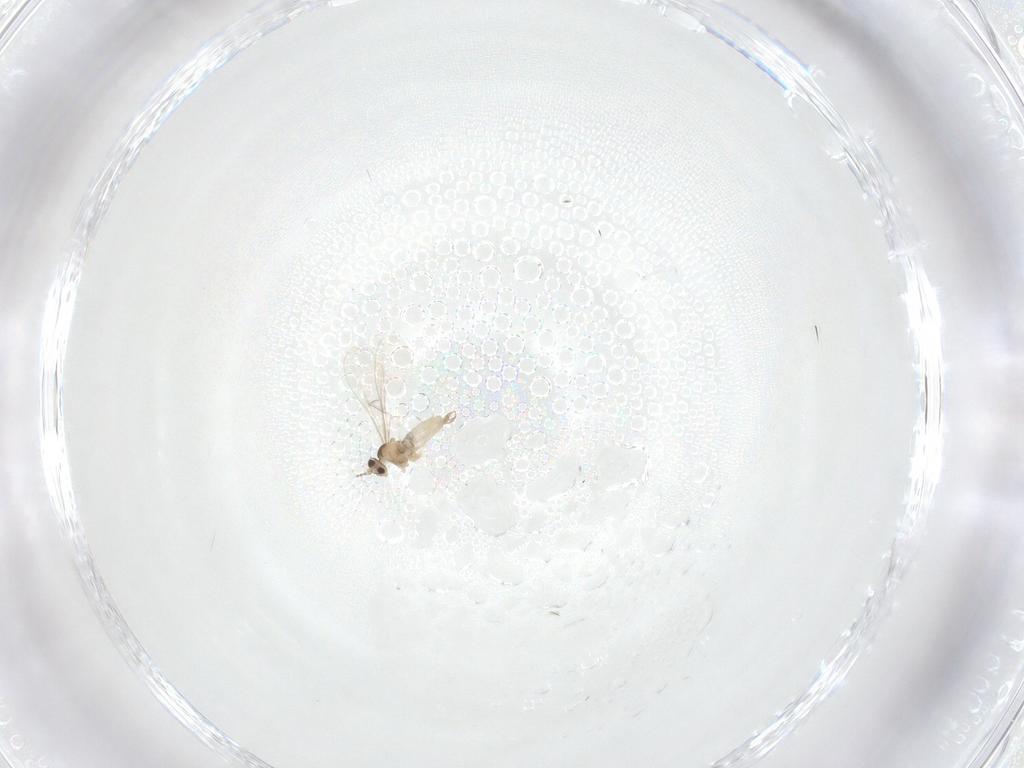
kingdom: Animalia
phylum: Arthropoda
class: Insecta
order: Diptera
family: Cecidomyiidae
